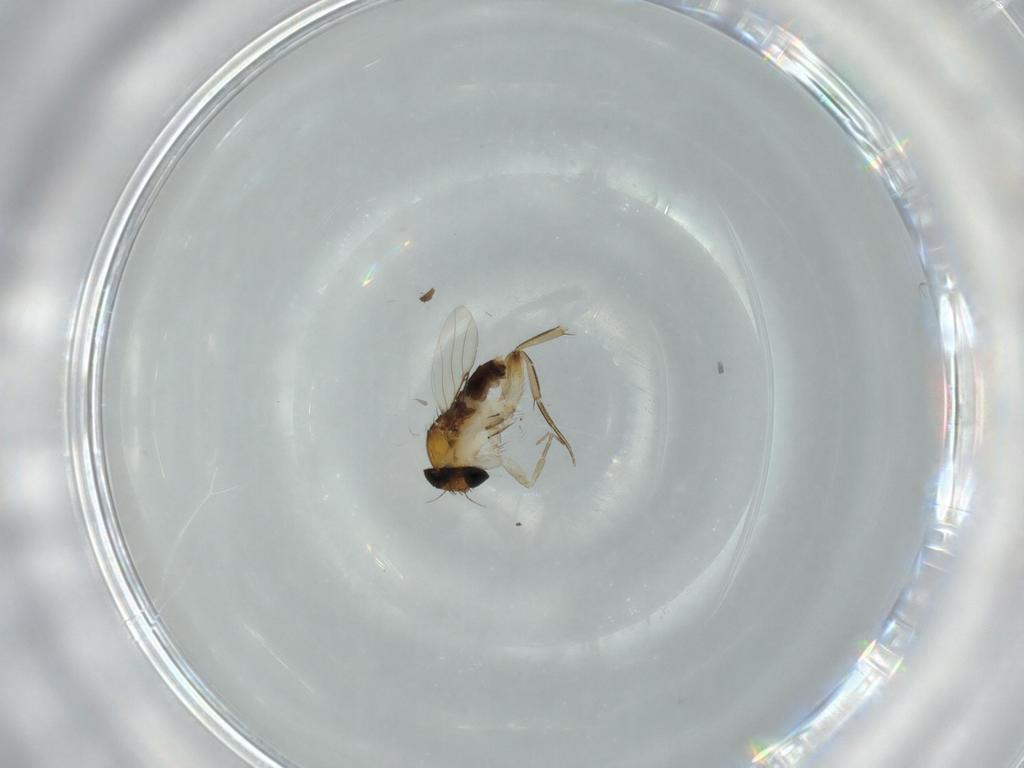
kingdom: Animalia
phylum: Arthropoda
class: Insecta
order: Diptera
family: Phoridae
